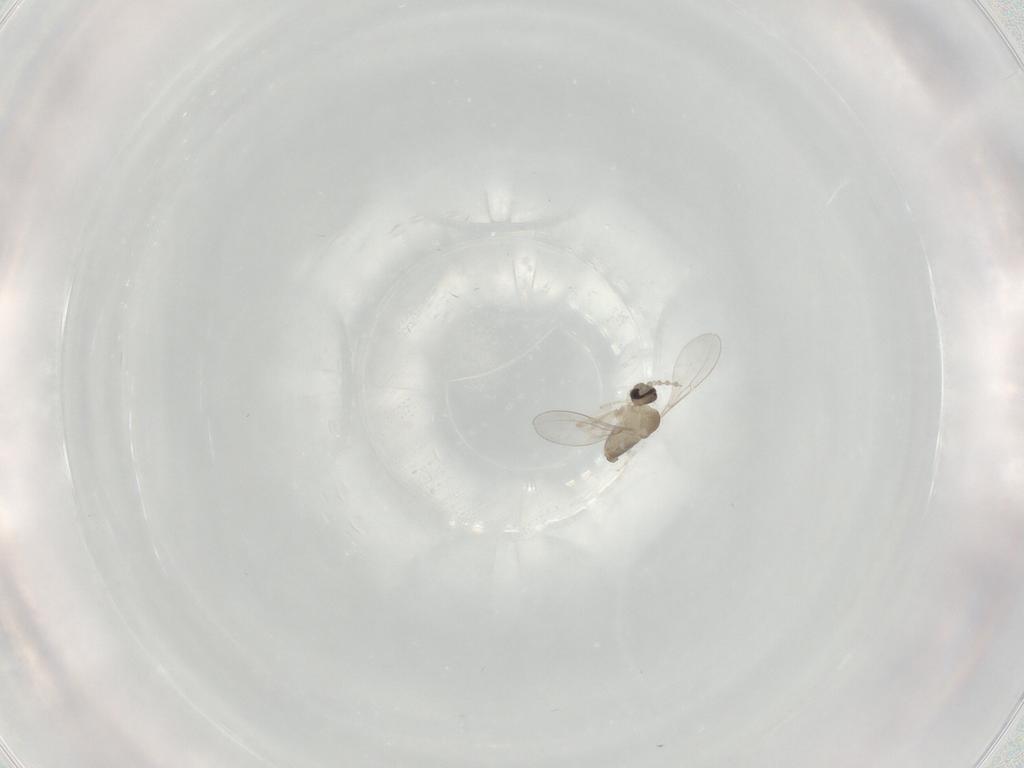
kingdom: Animalia
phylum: Arthropoda
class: Insecta
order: Diptera
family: Cecidomyiidae
